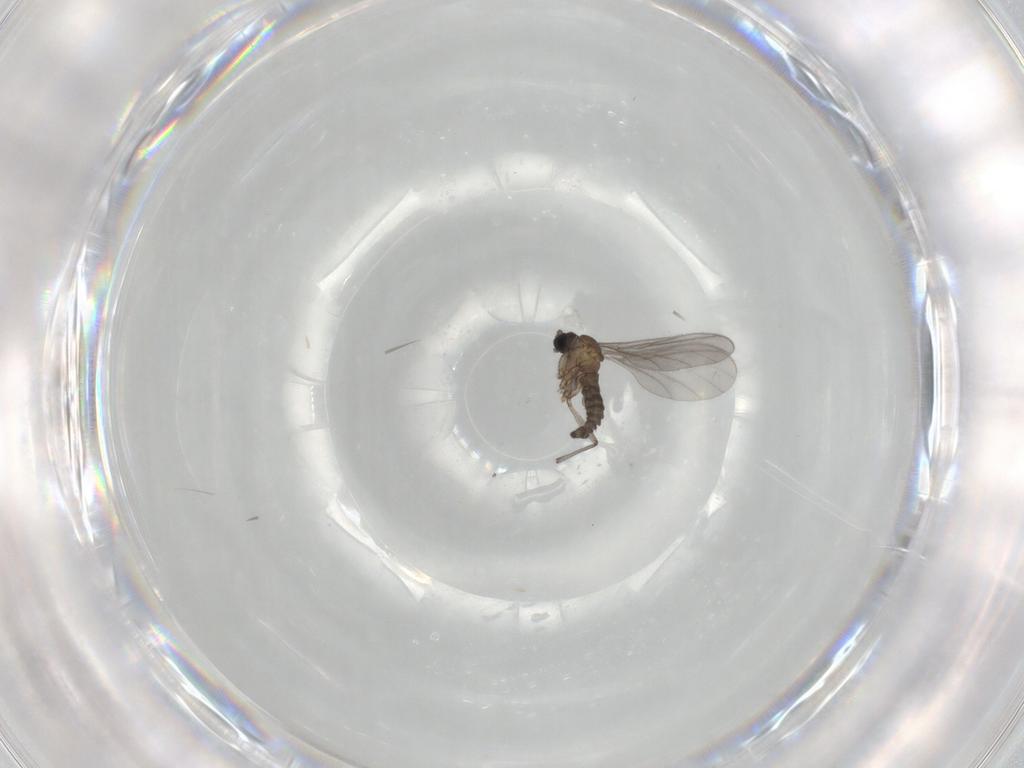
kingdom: Animalia
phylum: Arthropoda
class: Insecta
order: Diptera
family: Sciaridae
